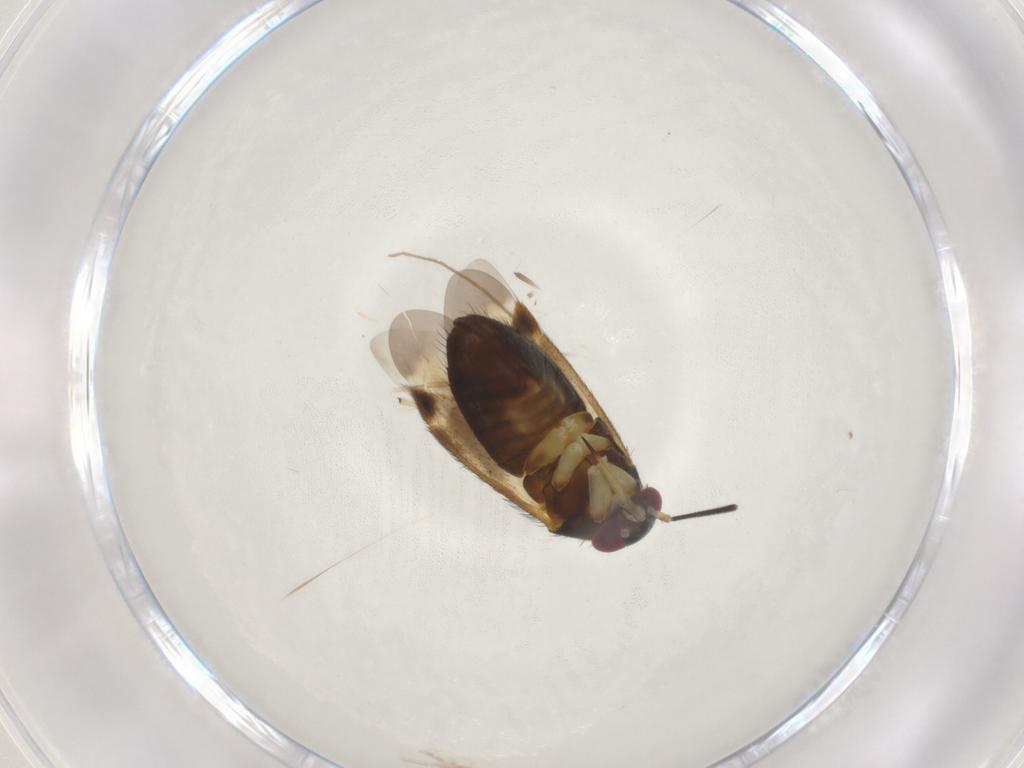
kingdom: Animalia
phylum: Arthropoda
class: Insecta
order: Hemiptera
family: Miridae
